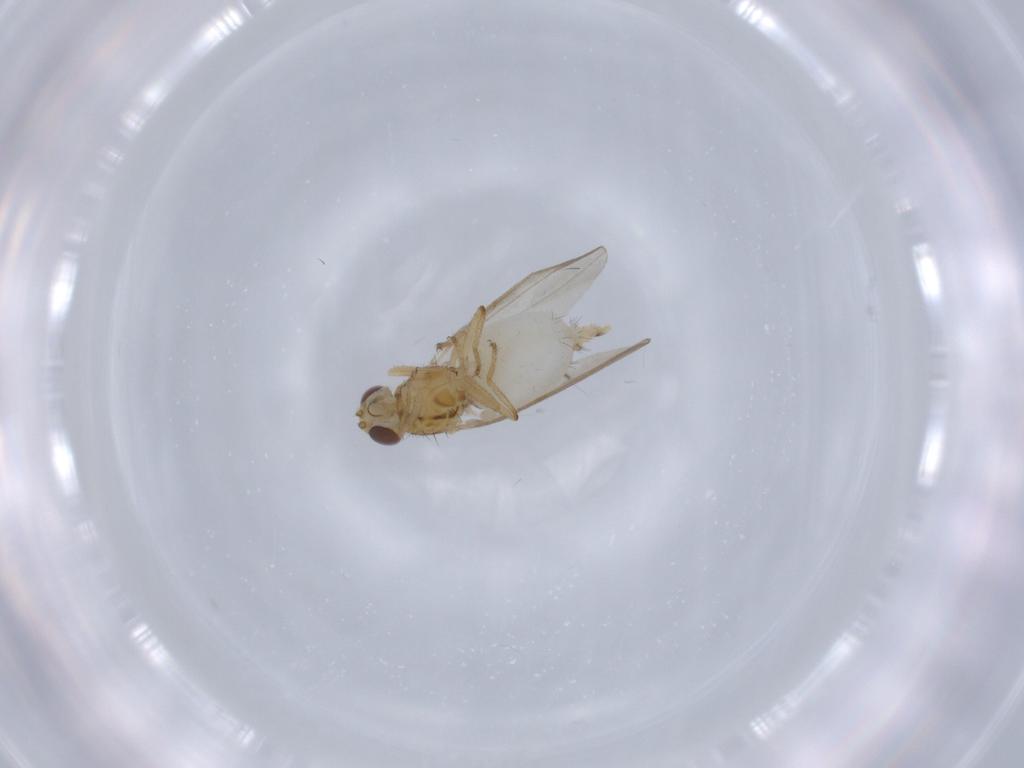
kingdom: Animalia
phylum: Arthropoda
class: Insecta
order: Diptera
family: Asteiidae
